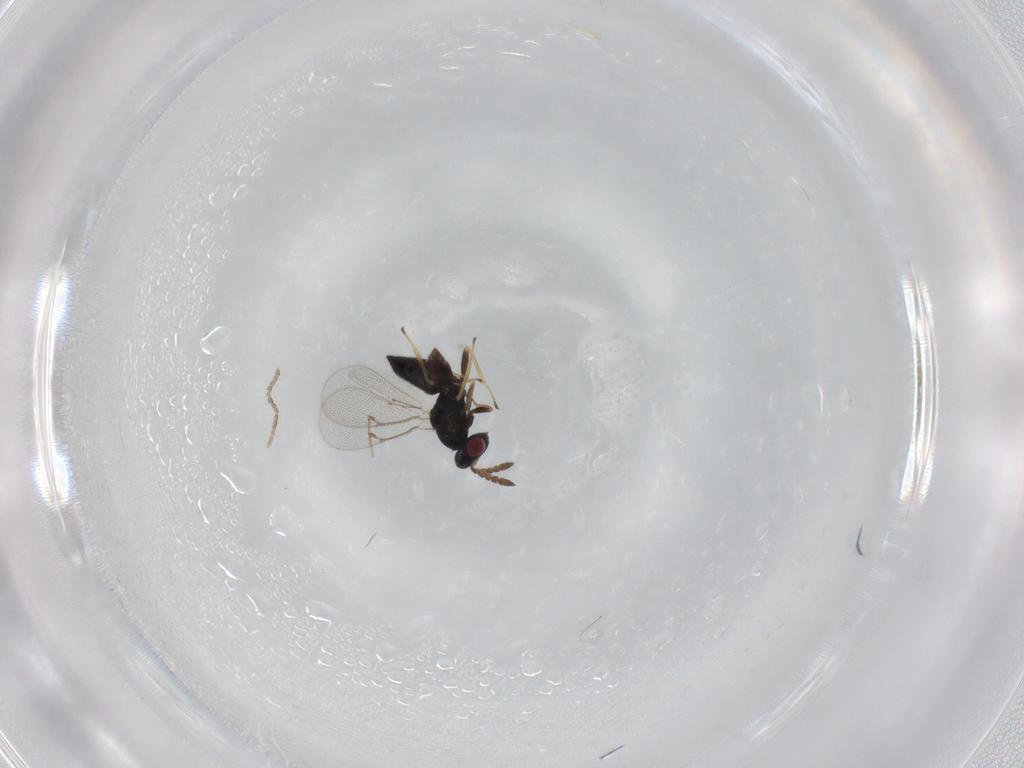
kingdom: Animalia
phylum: Arthropoda
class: Insecta
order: Hymenoptera
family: Eulophidae
